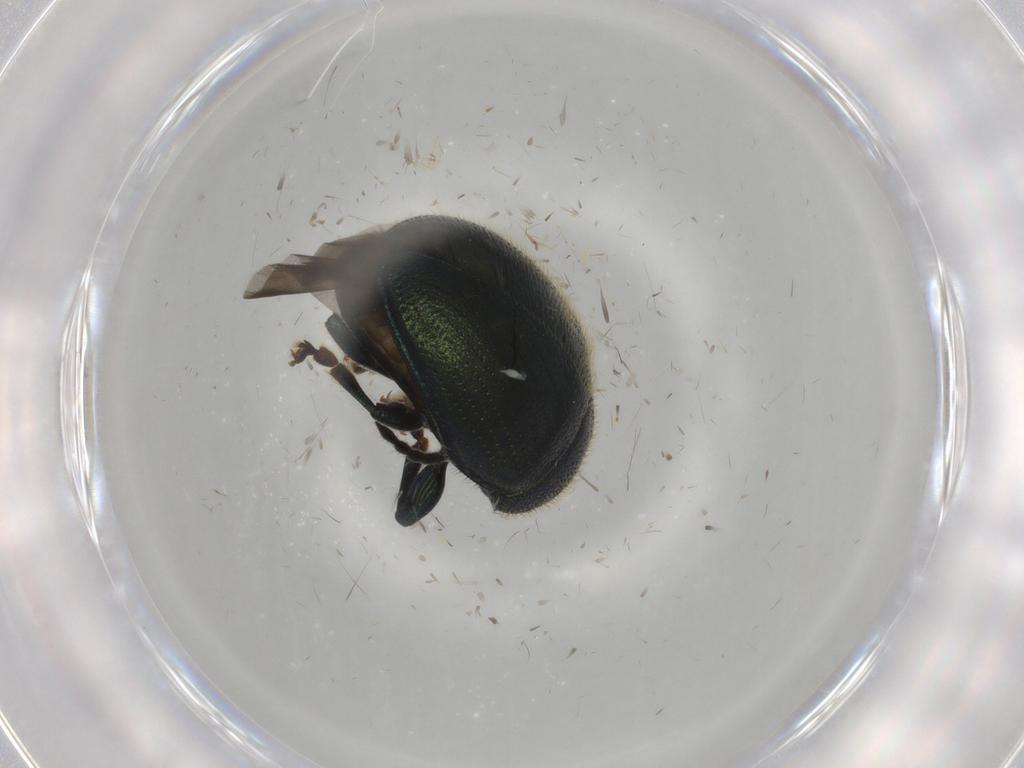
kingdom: Animalia
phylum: Arthropoda
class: Insecta
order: Coleoptera
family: Chrysomelidae
